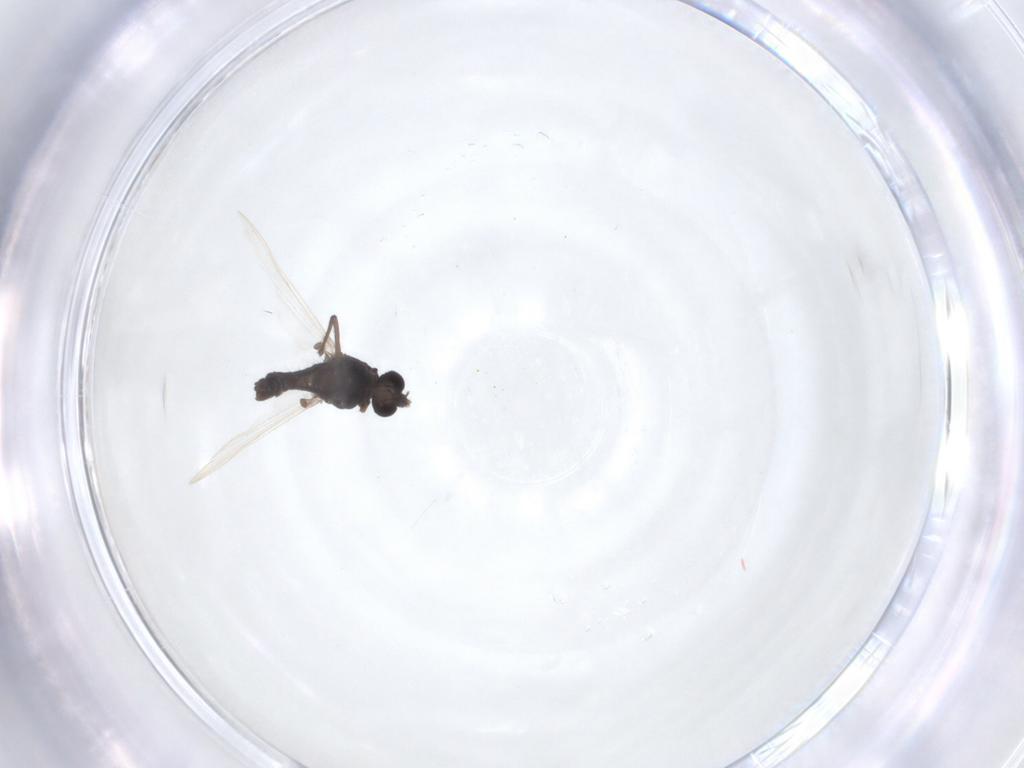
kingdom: Animalia
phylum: Arthropoda
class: Insecta
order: Diptera
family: Chironomidae
